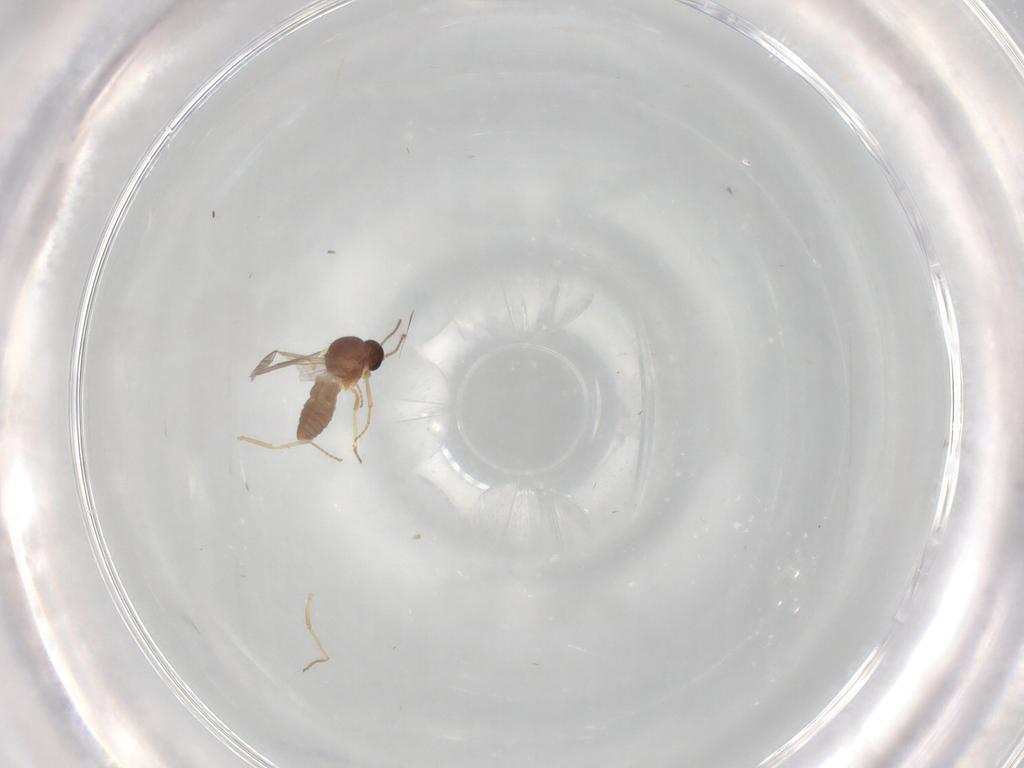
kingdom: Animalia
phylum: Arthropoda
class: Insecta
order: Diptera
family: Ceratopogonidae
